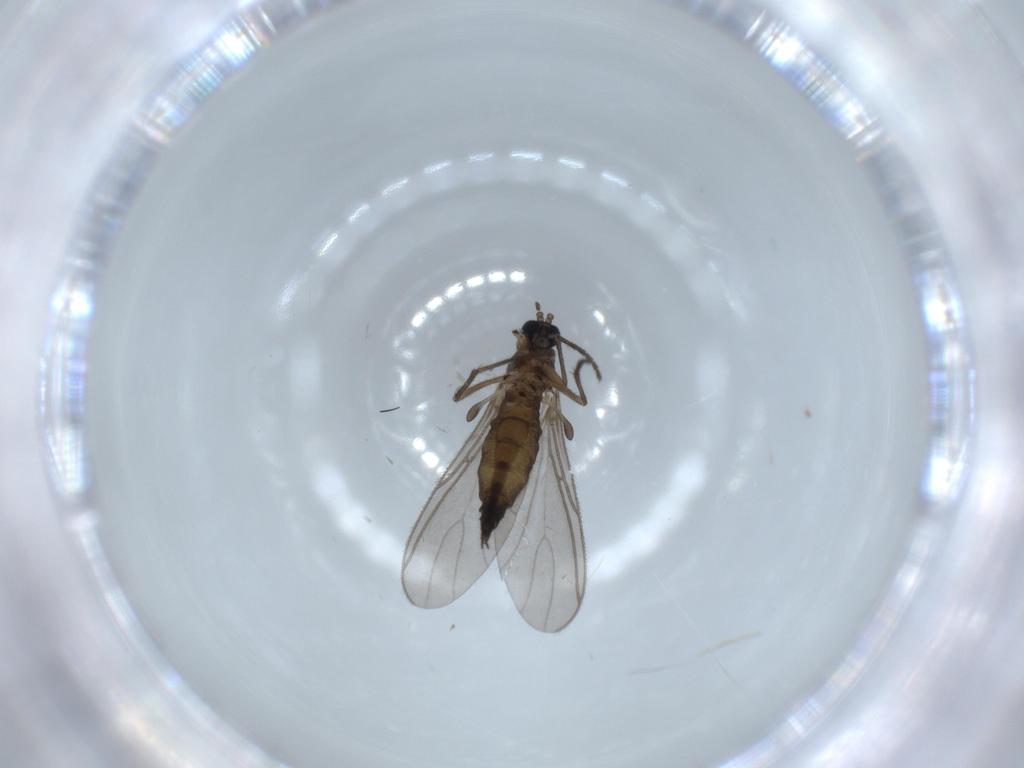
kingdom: Animalia
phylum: Arthropoda
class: Insecta
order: Diptera
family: Sciaridae
